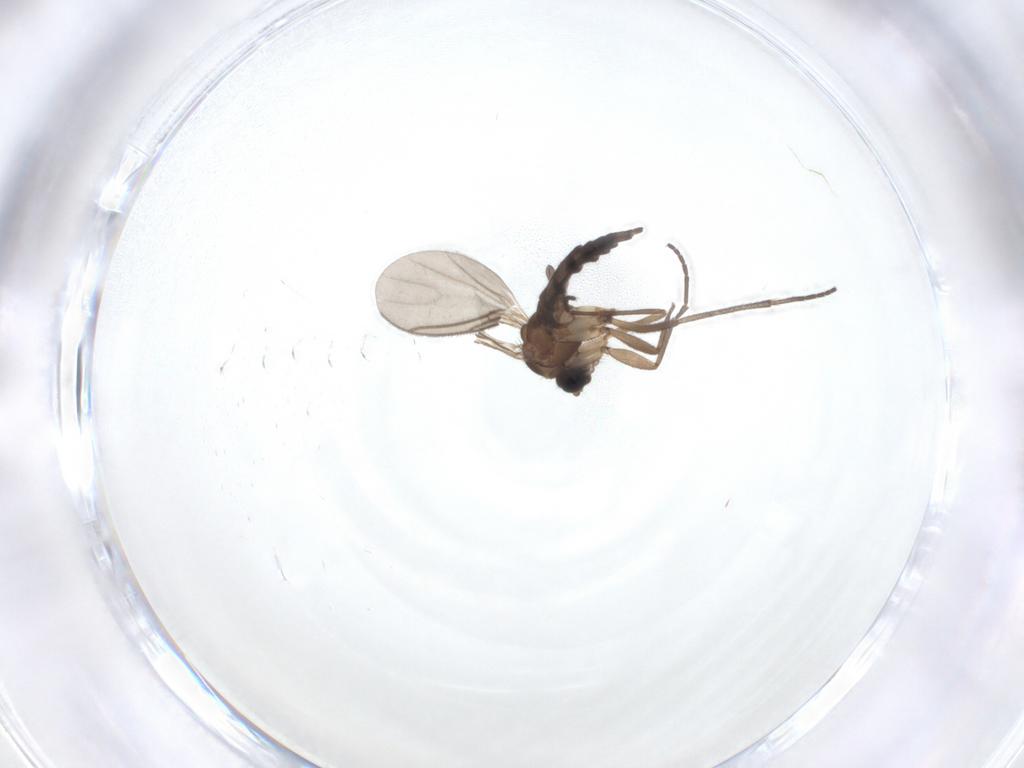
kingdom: Animalia
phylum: Arthropoda
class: Insecta
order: Diptera
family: Sciaridae
